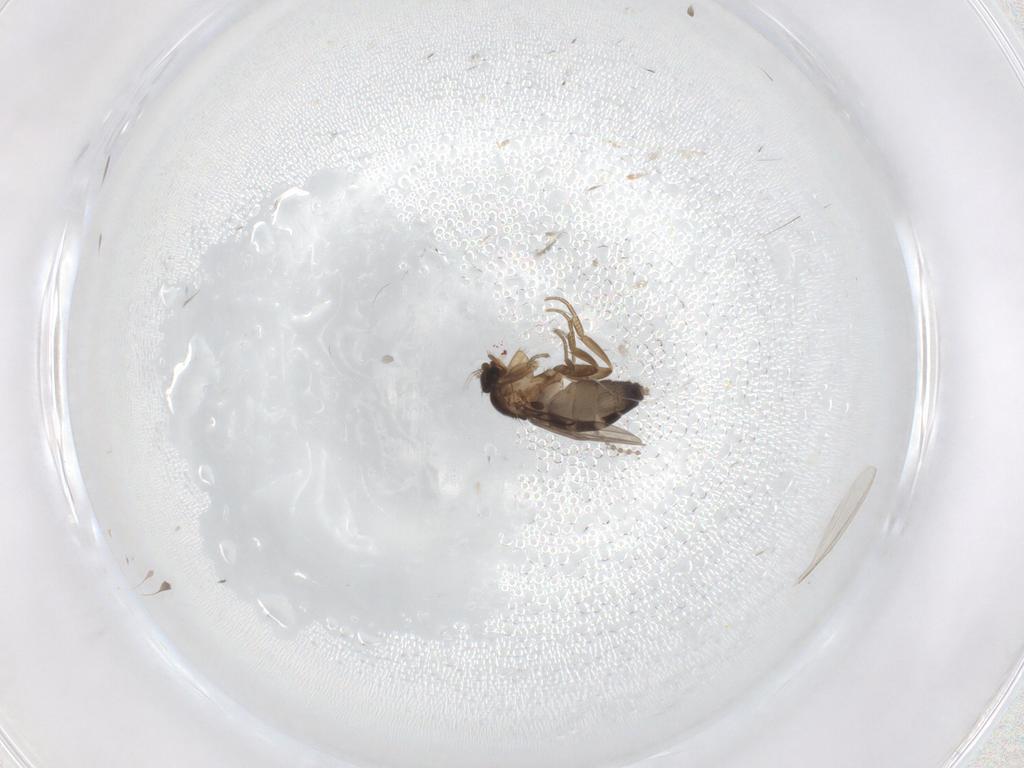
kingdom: Animalia
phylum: Arthropoda
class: Insecta
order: Diptera
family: Phoridae
